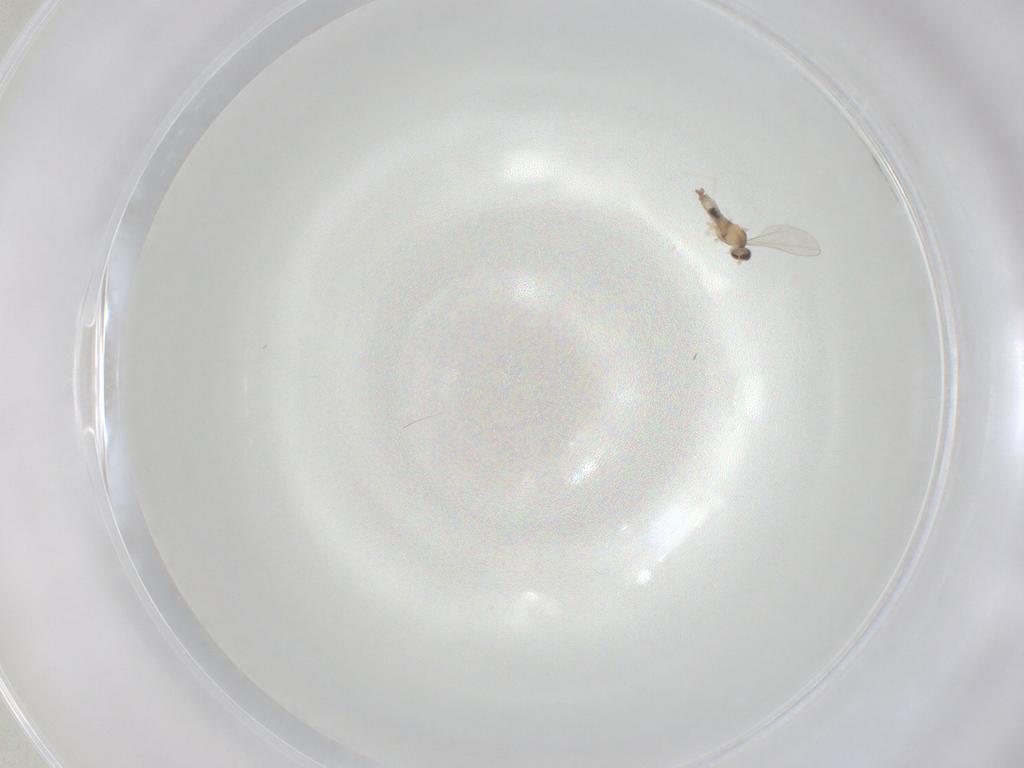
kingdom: Animalia
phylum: Arthropoda
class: Insecta
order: Diptera
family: Cecidomyiidae
